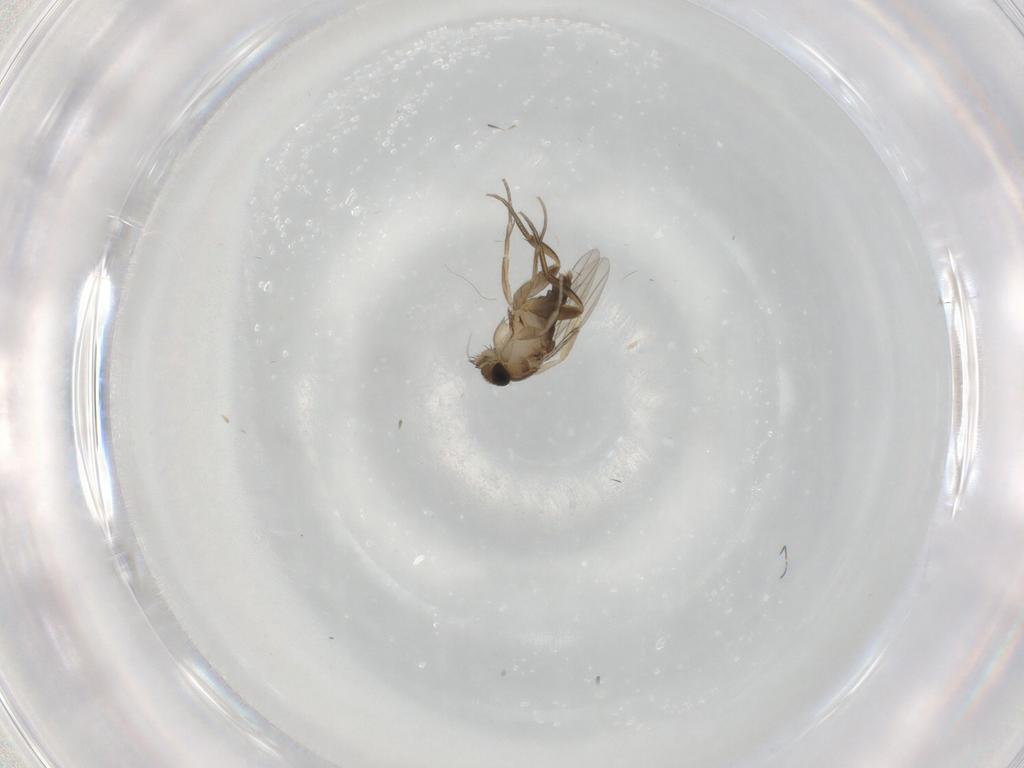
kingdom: Animalia
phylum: Arthropoda
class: Insecta
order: Diptera
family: Phoridae
